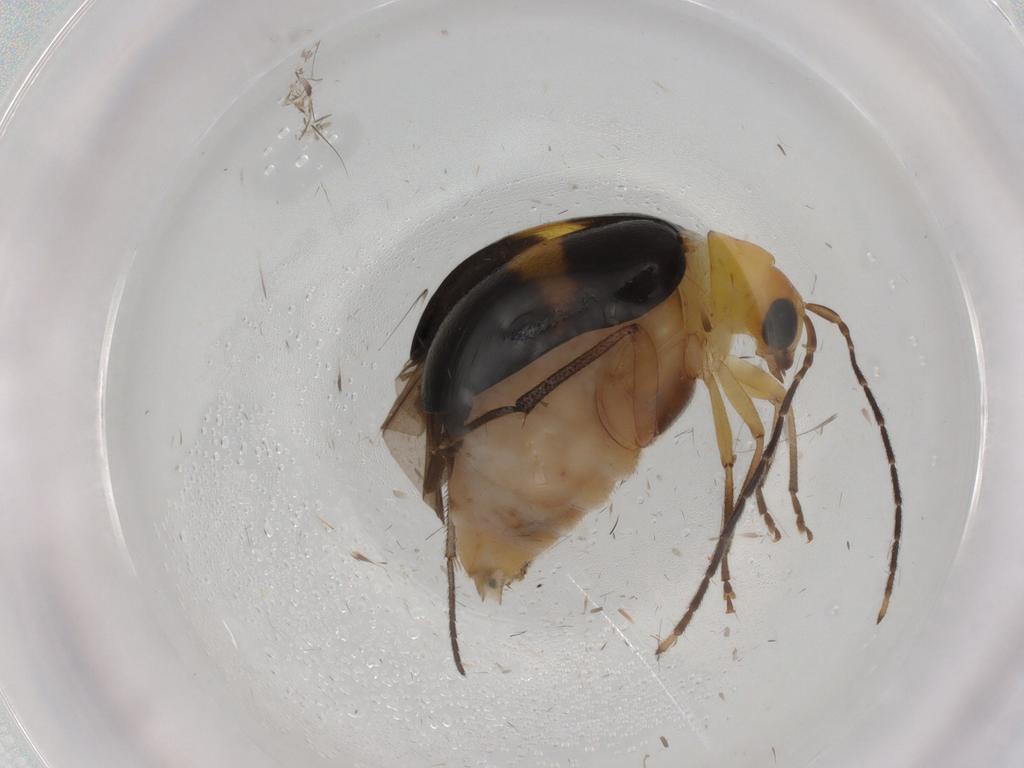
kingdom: Animalia
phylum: Arthropoda
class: Insecta
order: Coleoptera
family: Chrysomelidae
